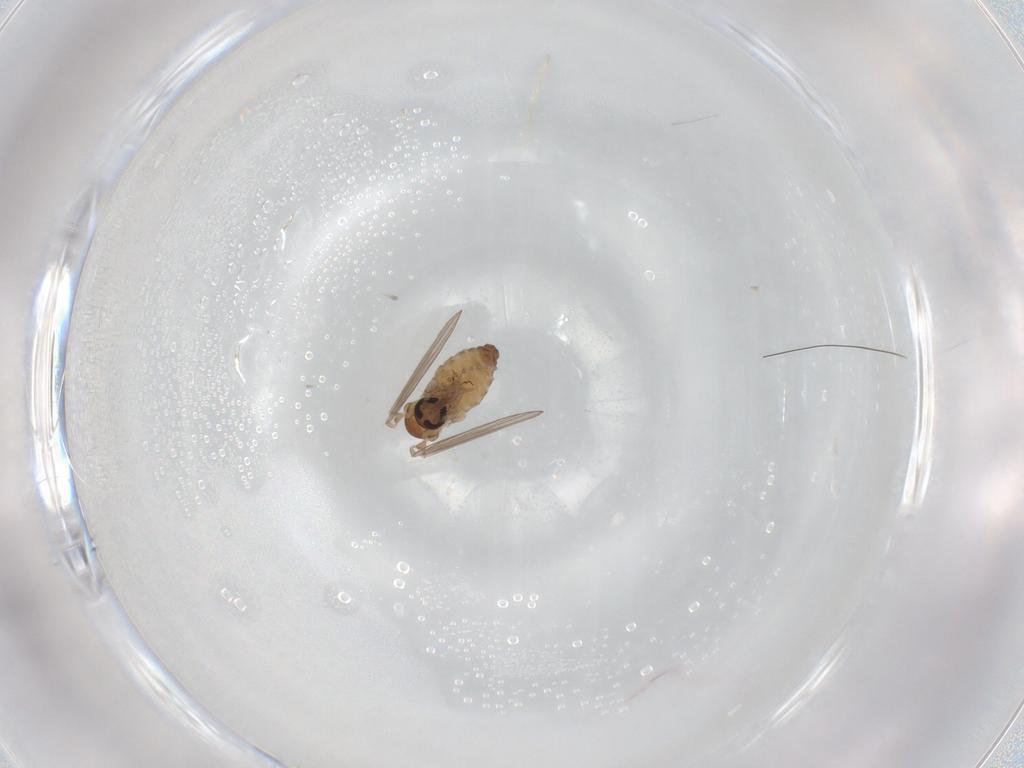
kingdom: Animalia
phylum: Arthropoda
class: Insecta
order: Diptera
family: Psychodidae
